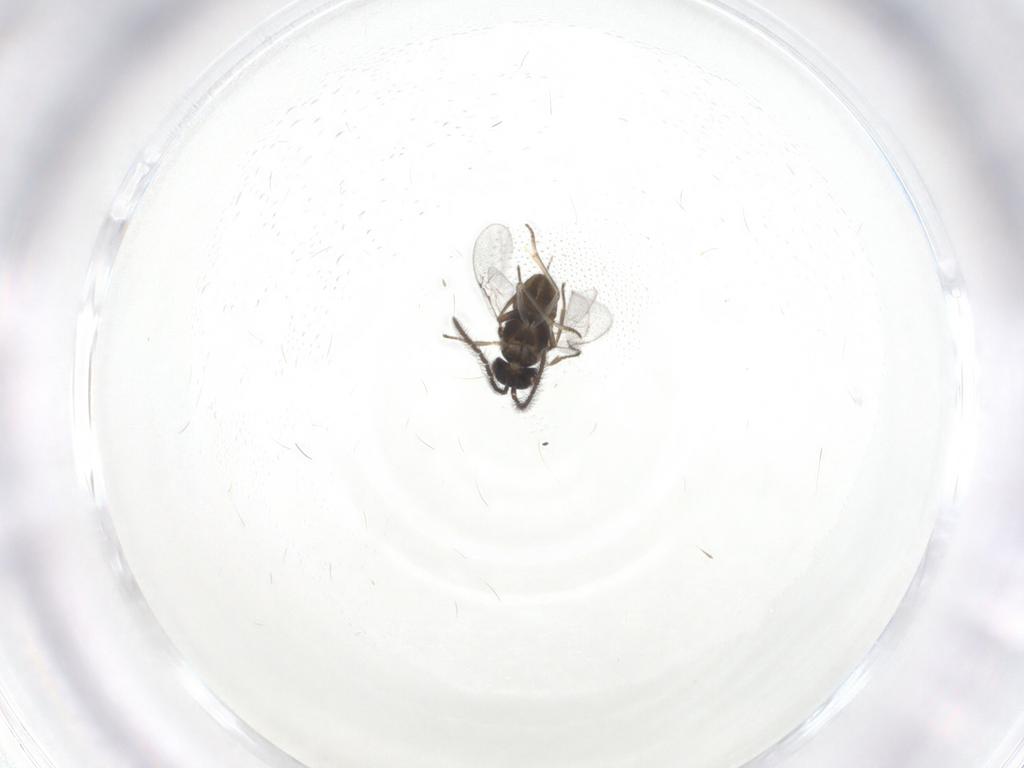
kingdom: Animalia
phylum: Arthropoda
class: Insecta
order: Hymenoptera
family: Encyrtidae
